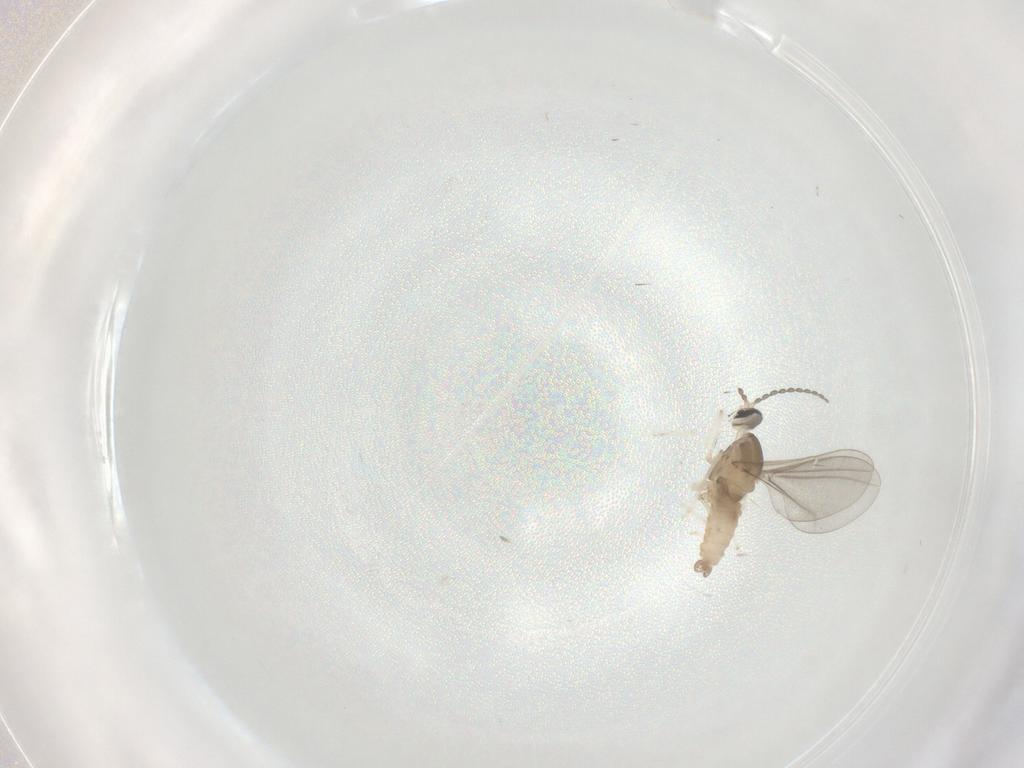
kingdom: Animalia
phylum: Arthropoda
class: Insecta
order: Diptera
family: Cecidomyiidae
